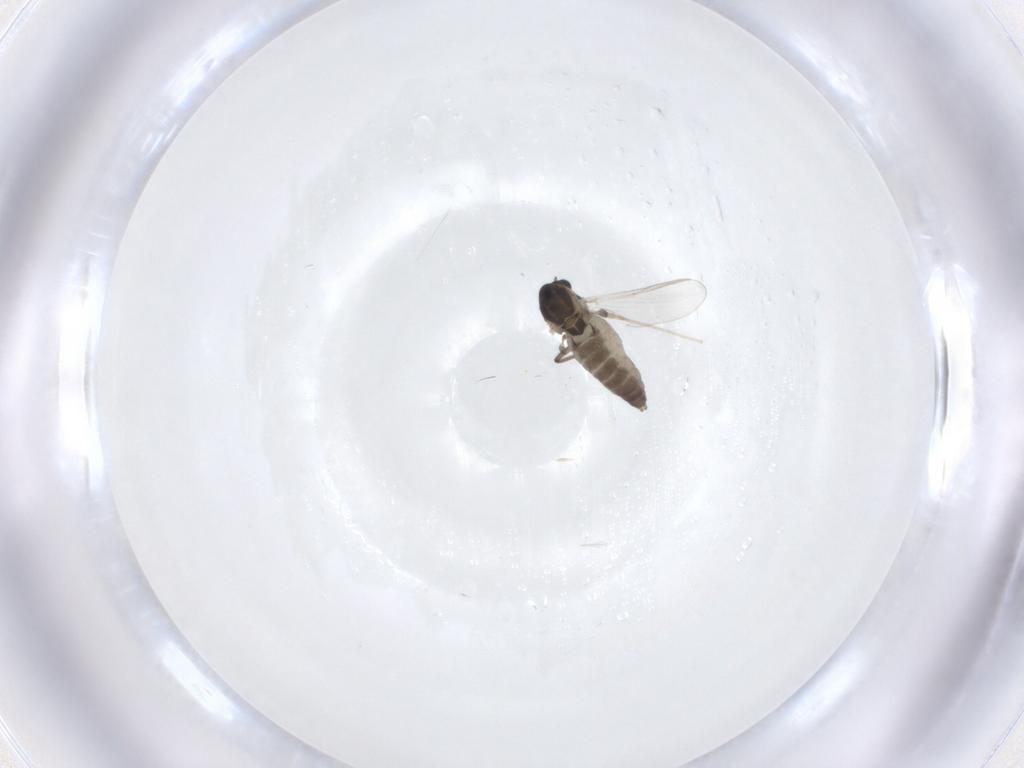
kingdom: Animalia
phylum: Arthropoda
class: Insecta
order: Diptera
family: Chironomidae
